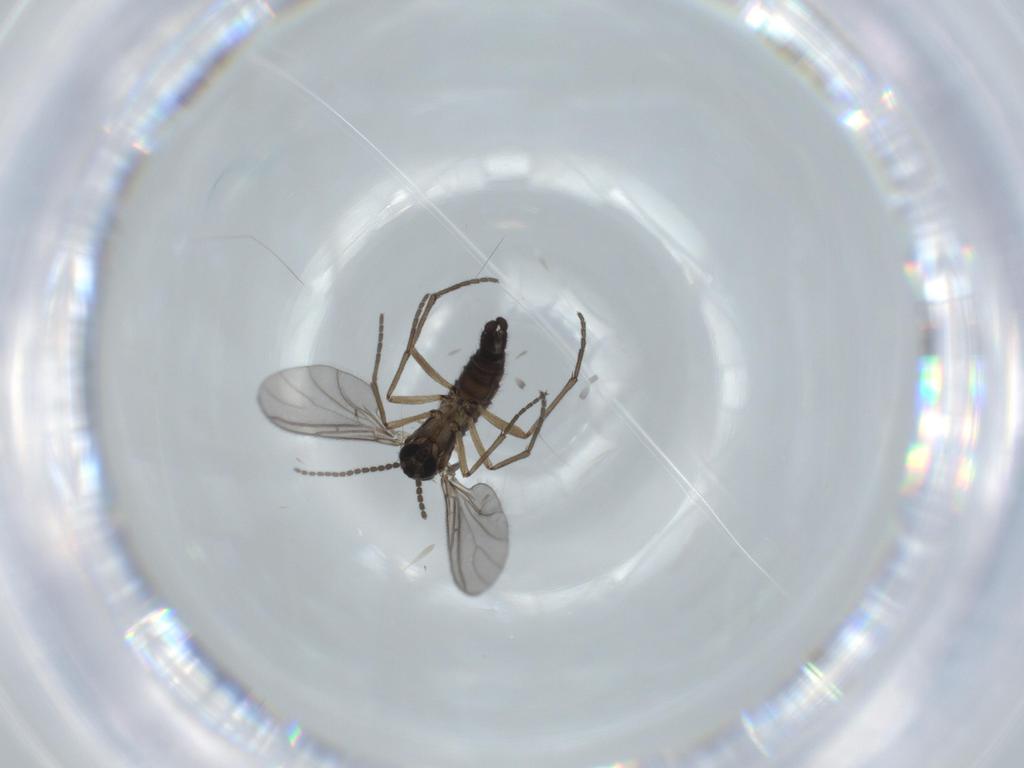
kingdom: Animalia
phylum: Arthropoda
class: Insecta
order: Diptera
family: Sciaridae
